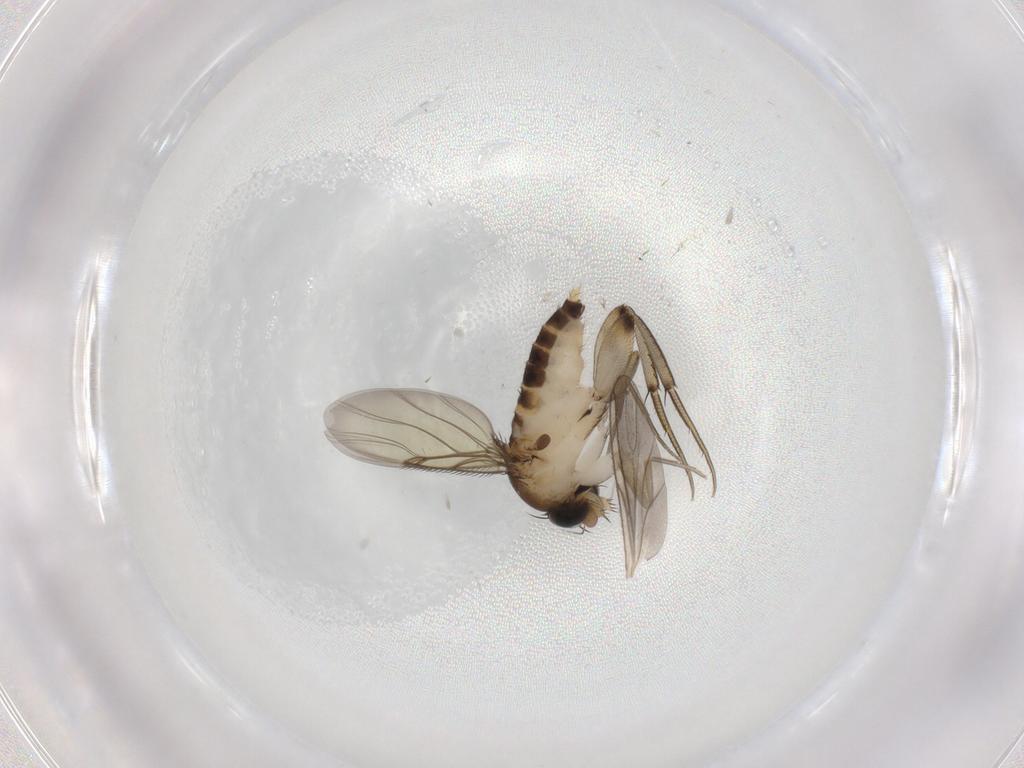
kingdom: Animalia
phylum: Arthropoda
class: Insecta
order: Diptera
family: Phoridae
